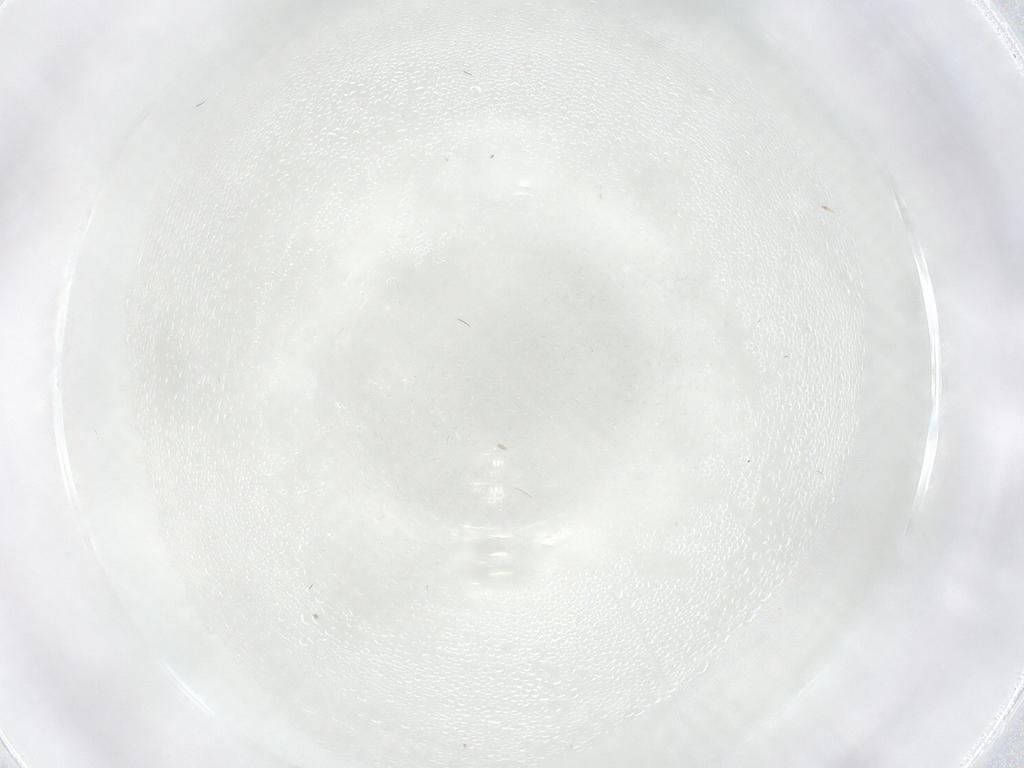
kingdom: Animalia
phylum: Arthropoda
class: Insecta
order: Diptera
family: Cecidomyiidae
